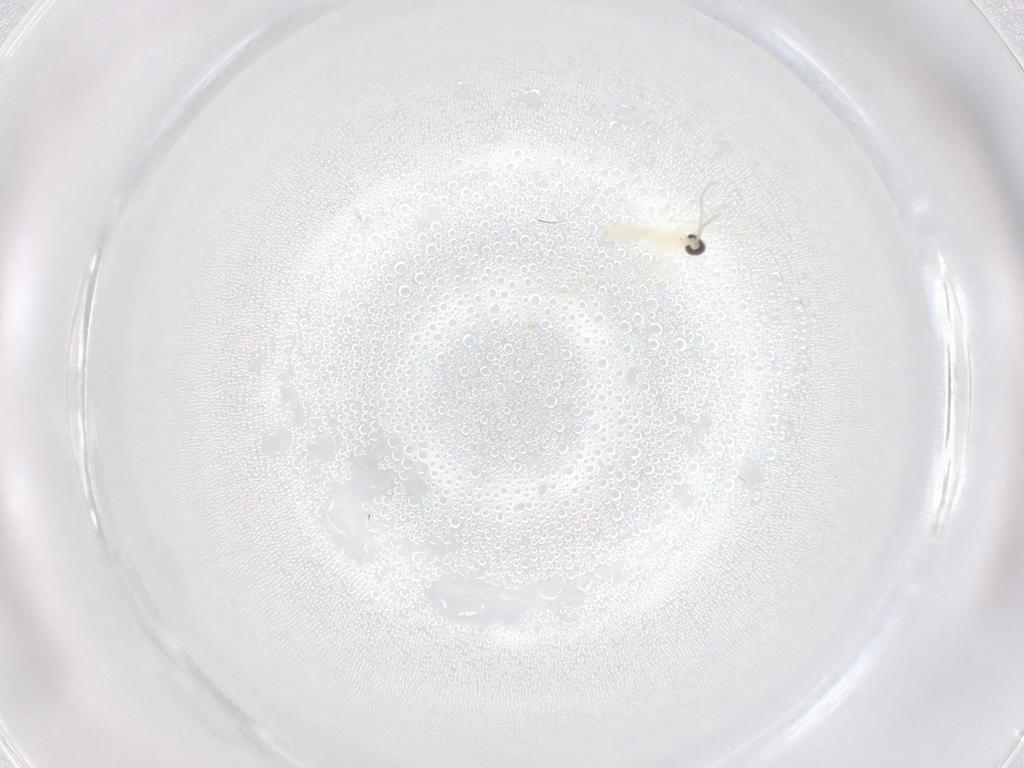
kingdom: Animalia
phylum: Arthropoda
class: Insecta
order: Diptera
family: Cecidomyiidae
